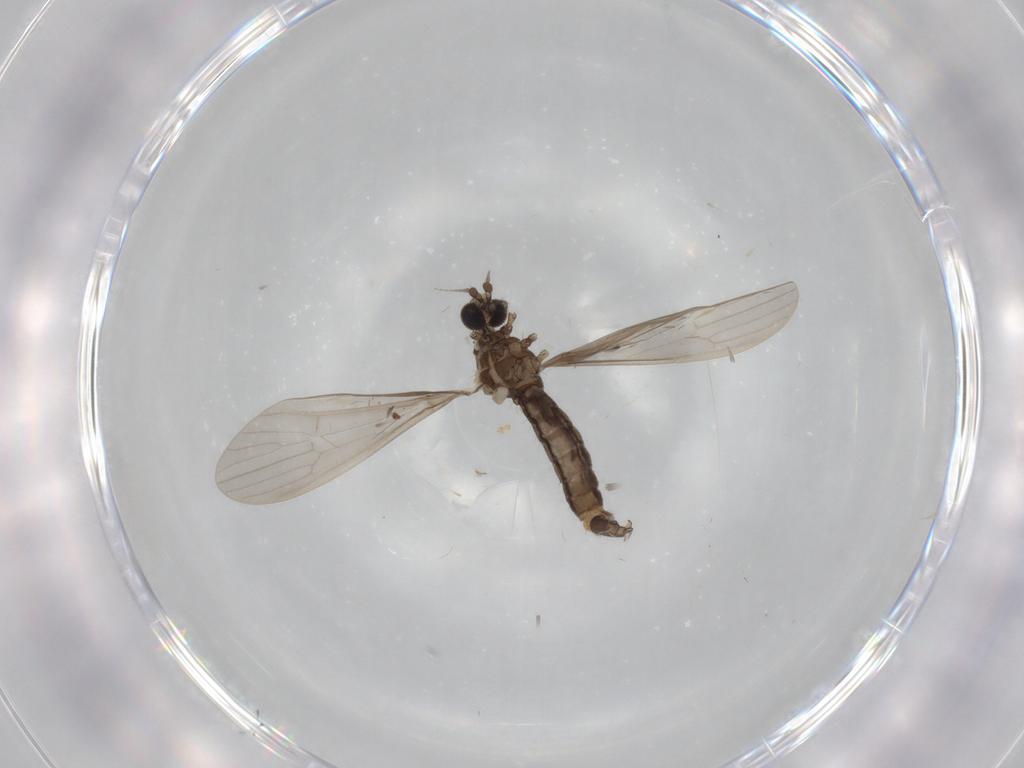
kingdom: Animalia
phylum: Arthropoda
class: Insecta
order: Diptera
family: Limoniidae
